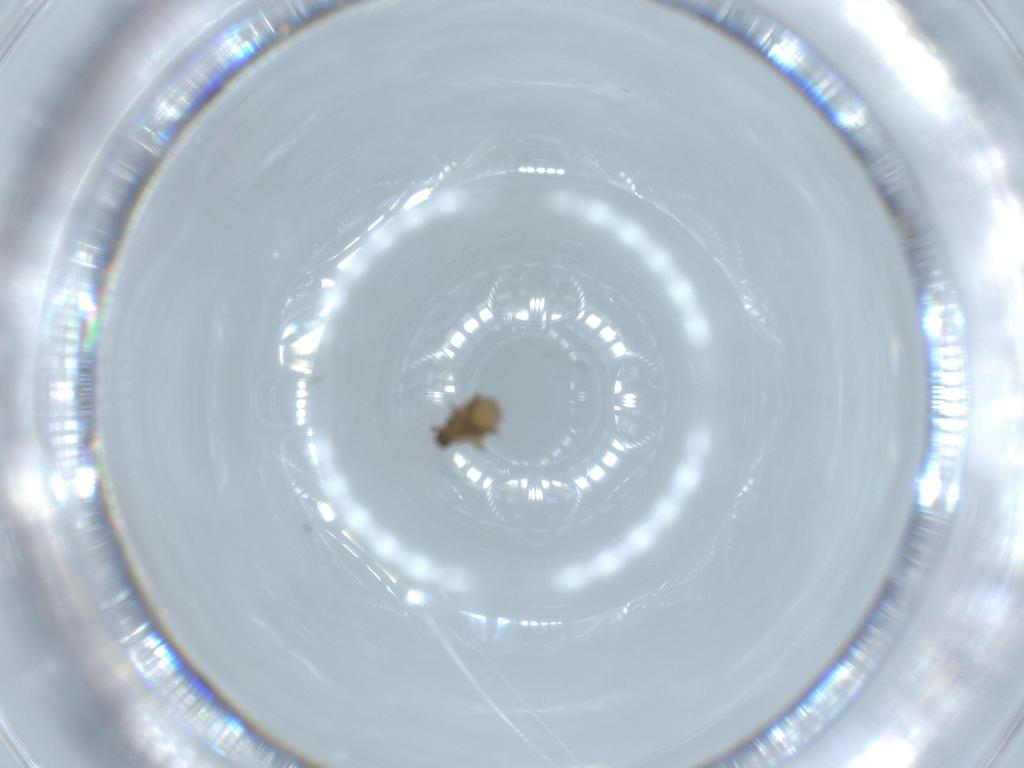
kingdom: Animalia
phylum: Arthropoda
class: Insecta
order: Diptera
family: Phoridae
